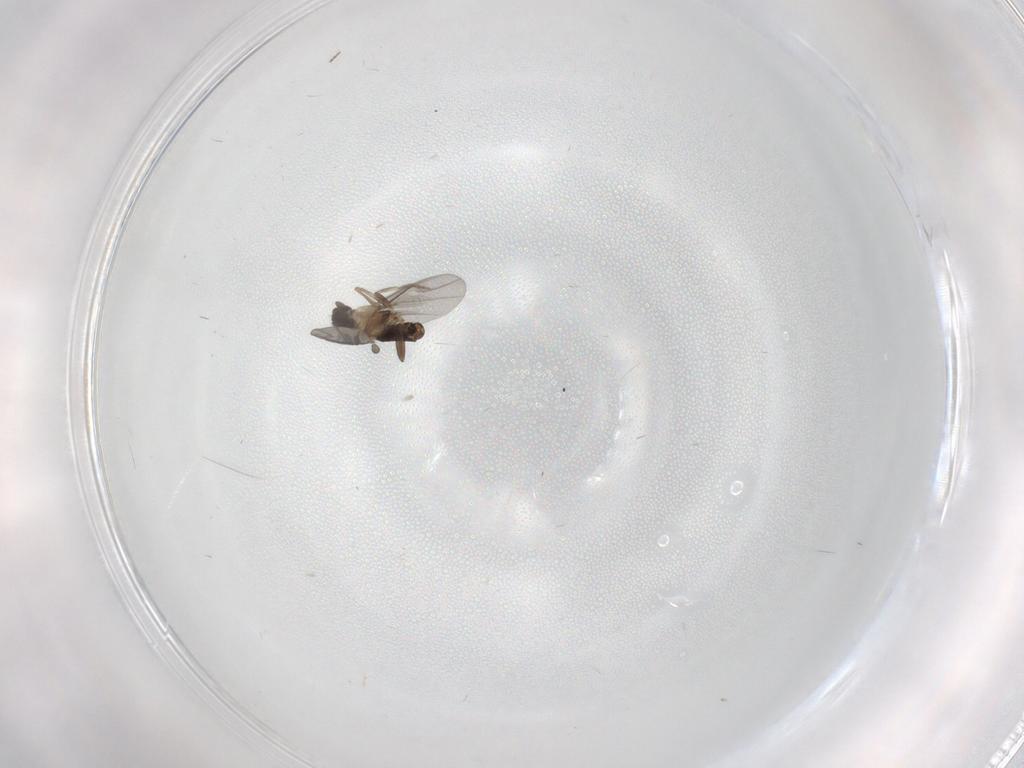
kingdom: Animalia
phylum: Arthropoda
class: Insecta
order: Diptera
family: Chironomidae
